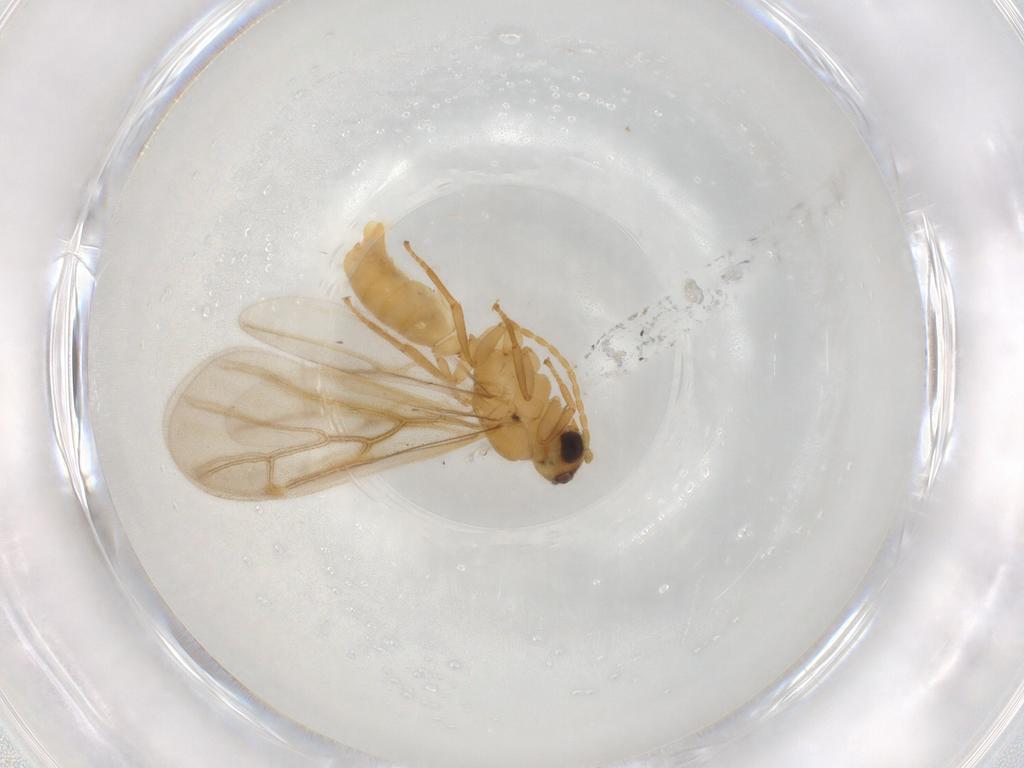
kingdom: Animalia
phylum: Arthropoda
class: Insecta
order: Hymenoptera
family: Formicidae
